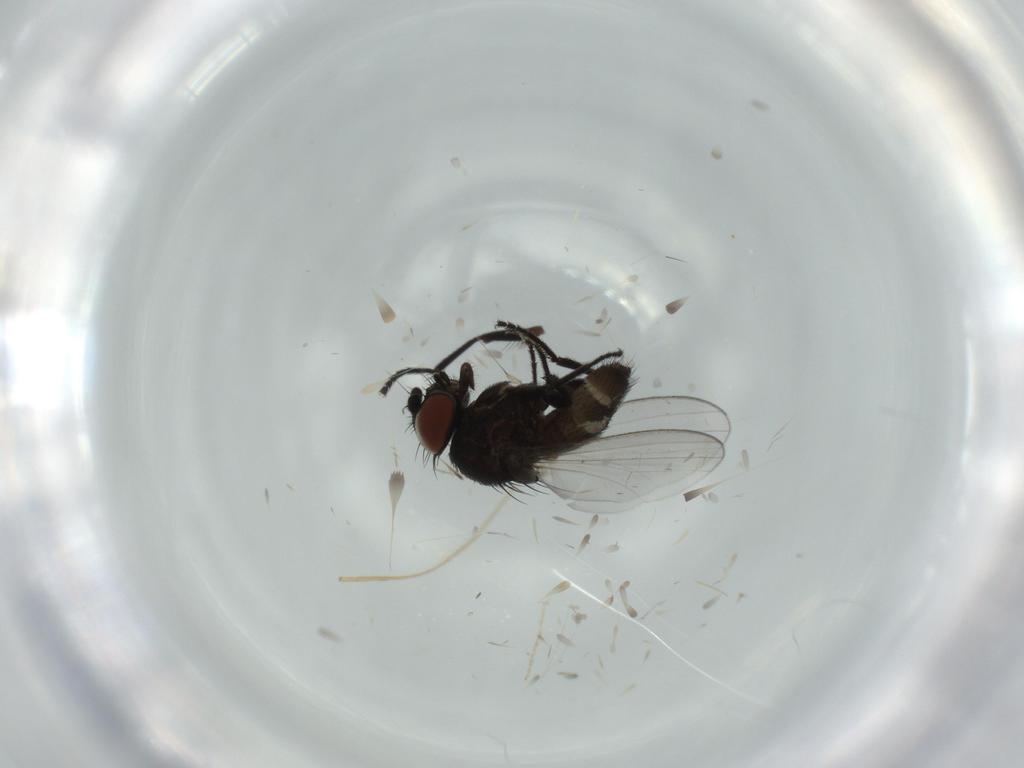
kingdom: Animalia
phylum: Arthropoda
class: Insecta
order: Diptera
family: Milichiidae
